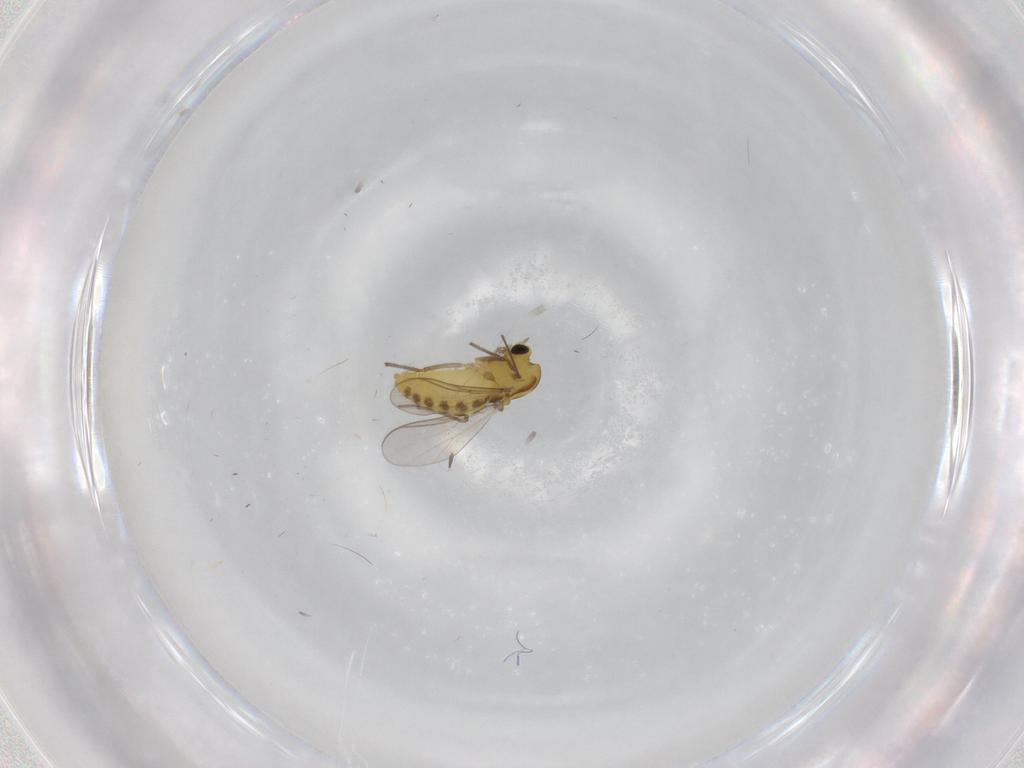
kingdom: Animalia
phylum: Arthropoda
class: Insecta
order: Diptera
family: Chironomidae
